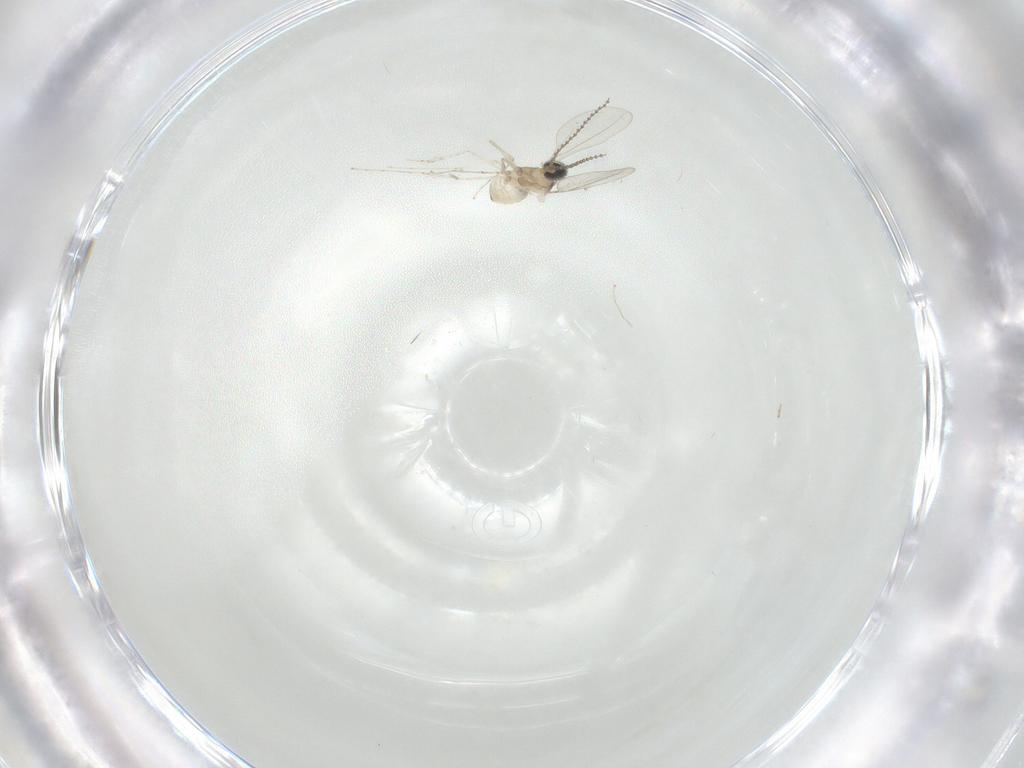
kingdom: Animalia
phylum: Arthropoda
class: Insecta
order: Diptera
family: Cecidomyiidae
